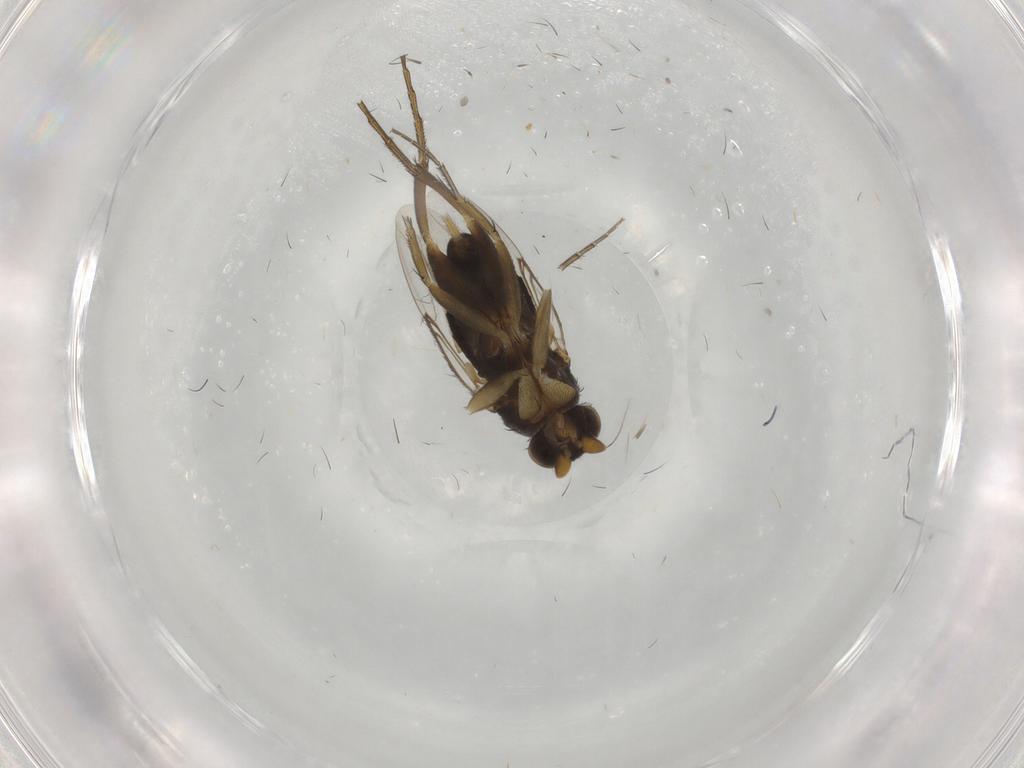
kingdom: Animalia
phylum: Arthropoda
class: Insecta
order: Diptera
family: Phoridae
